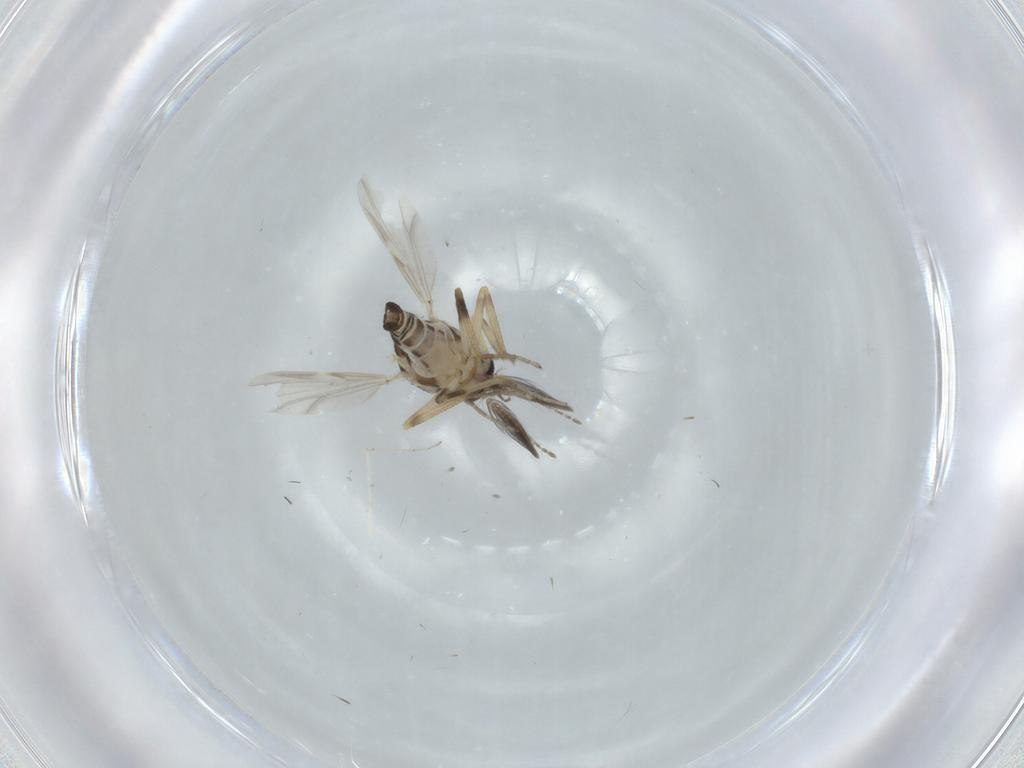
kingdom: Animalia
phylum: Arthropoda
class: Insecta
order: Diptera
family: Ceratopogonidae
